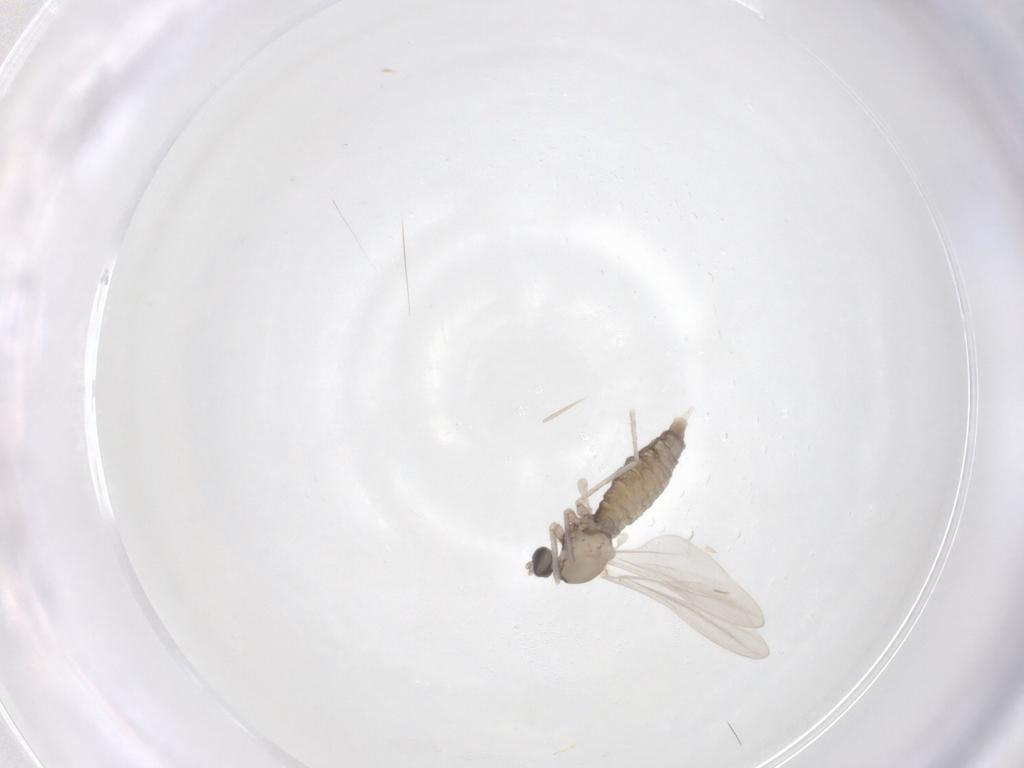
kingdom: Animalia
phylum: Arthropoda
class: Insecta
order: Diptera
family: Cecidomyiidae
